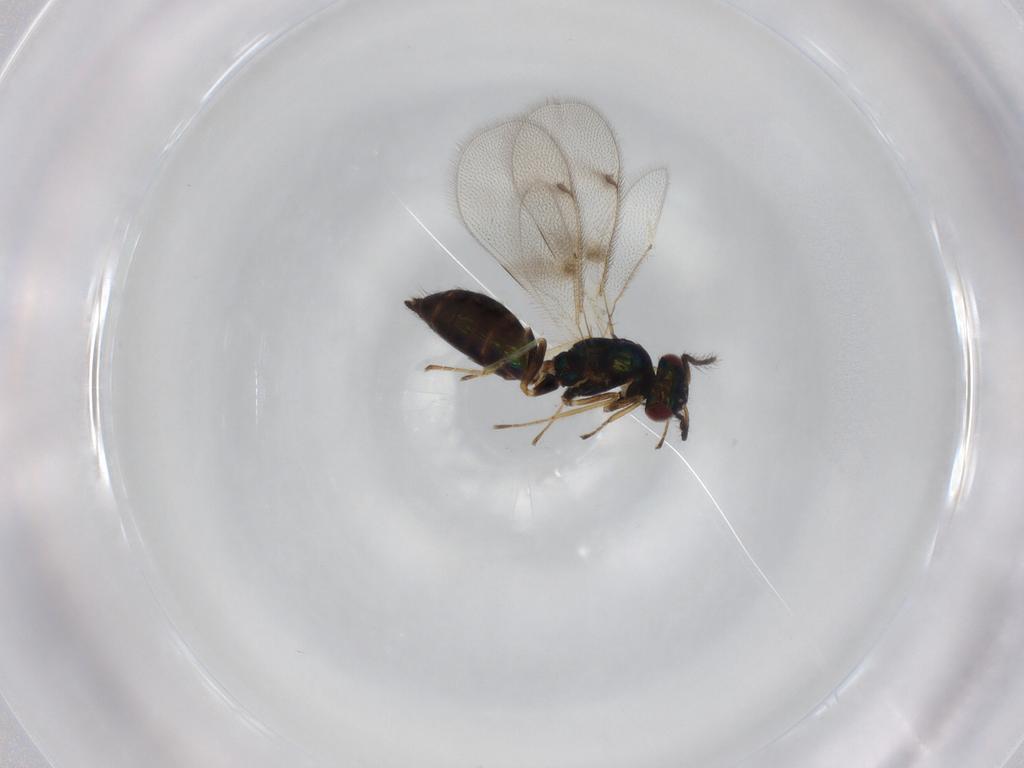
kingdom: Animalia
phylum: Arthropoda
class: Insecta
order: Hymenoptera
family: Eulophidae
